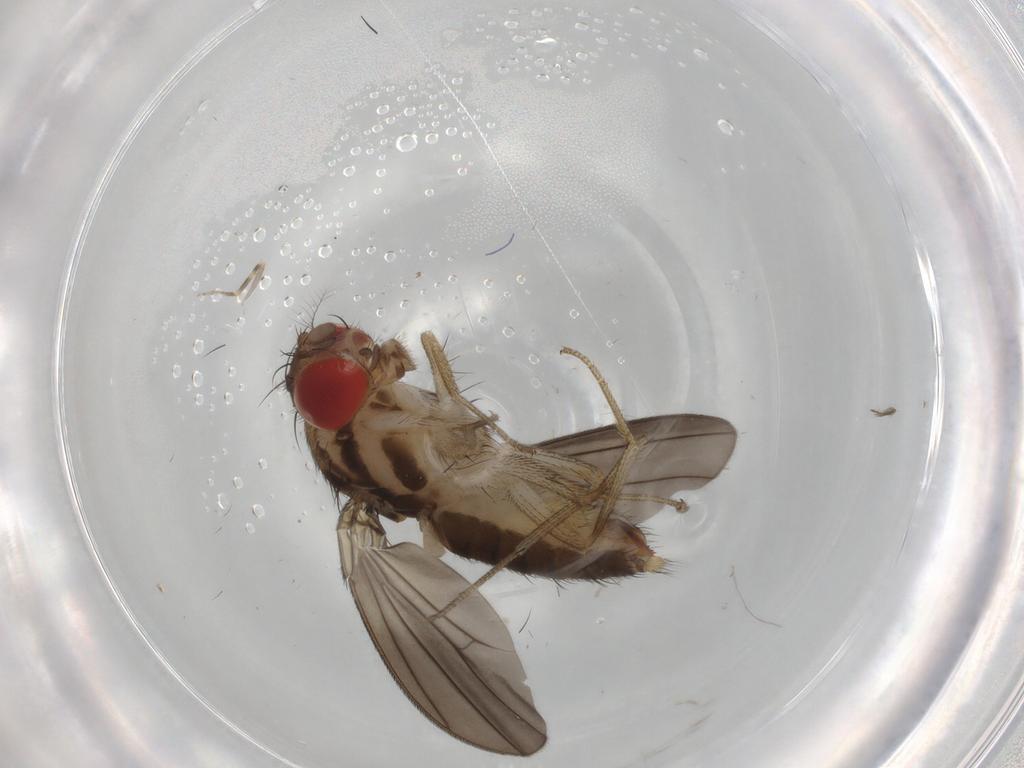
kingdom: Animalia
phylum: Arthropoda
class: Insecta
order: Diptera
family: Drosophilidae
